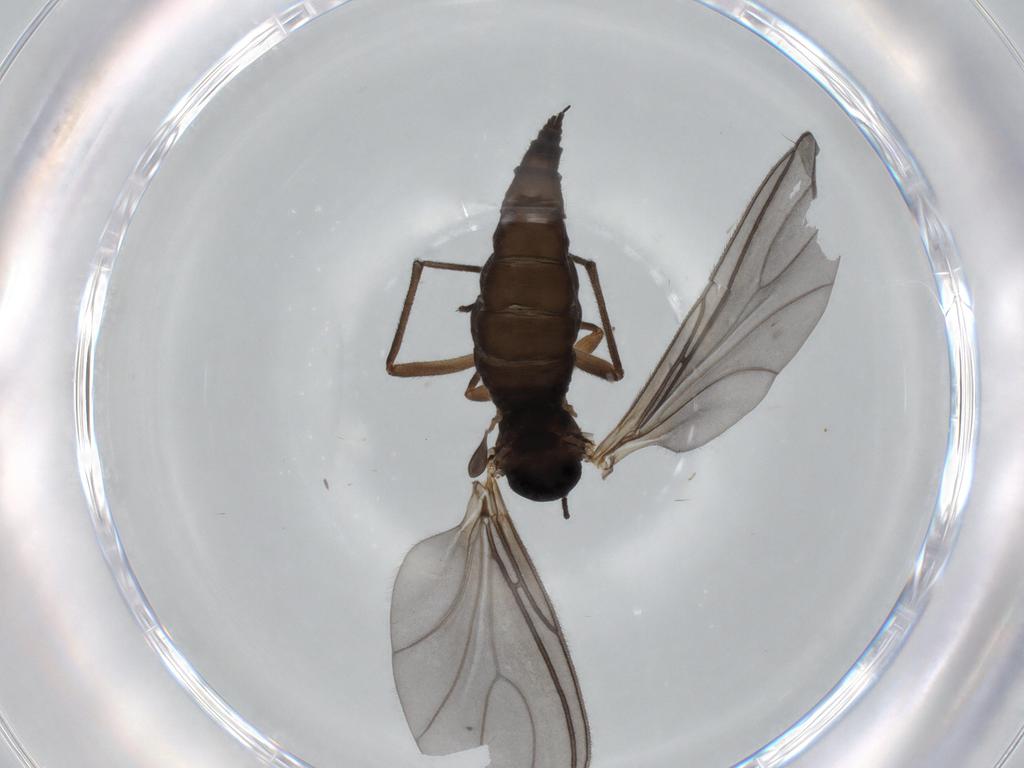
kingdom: Animalia
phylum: Arthropoda
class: Insecta
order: Diptera
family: Sciaridae
